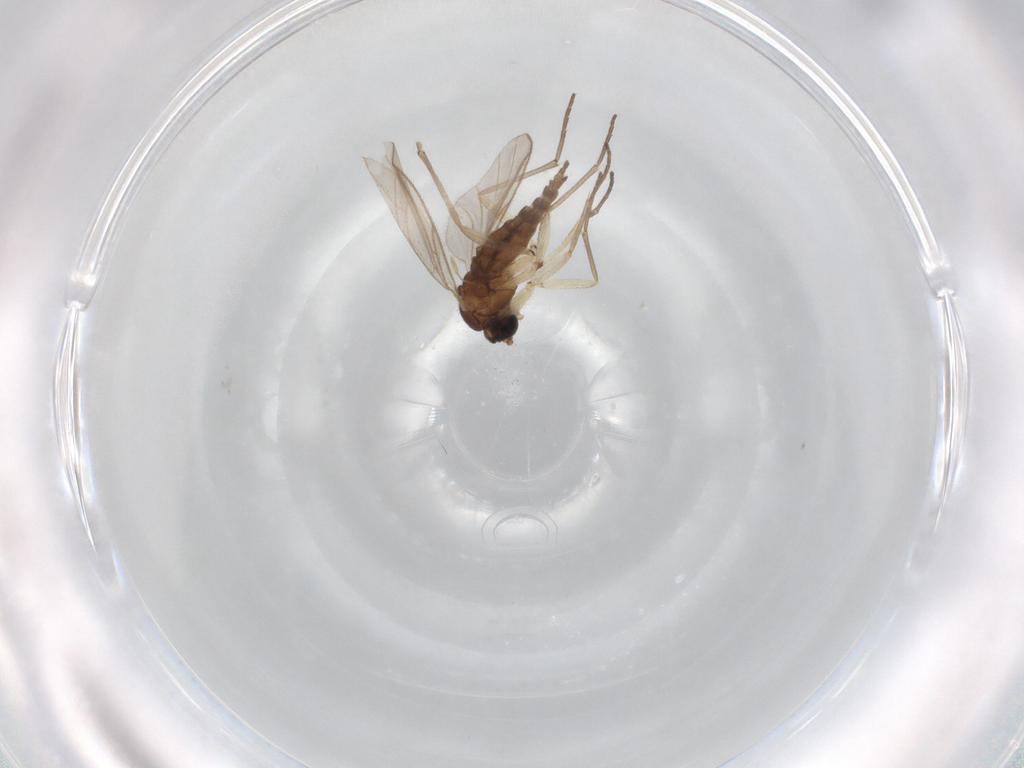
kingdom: Animalia
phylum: Arthropoda
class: Insecta
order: Diptera
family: Sciaridae
